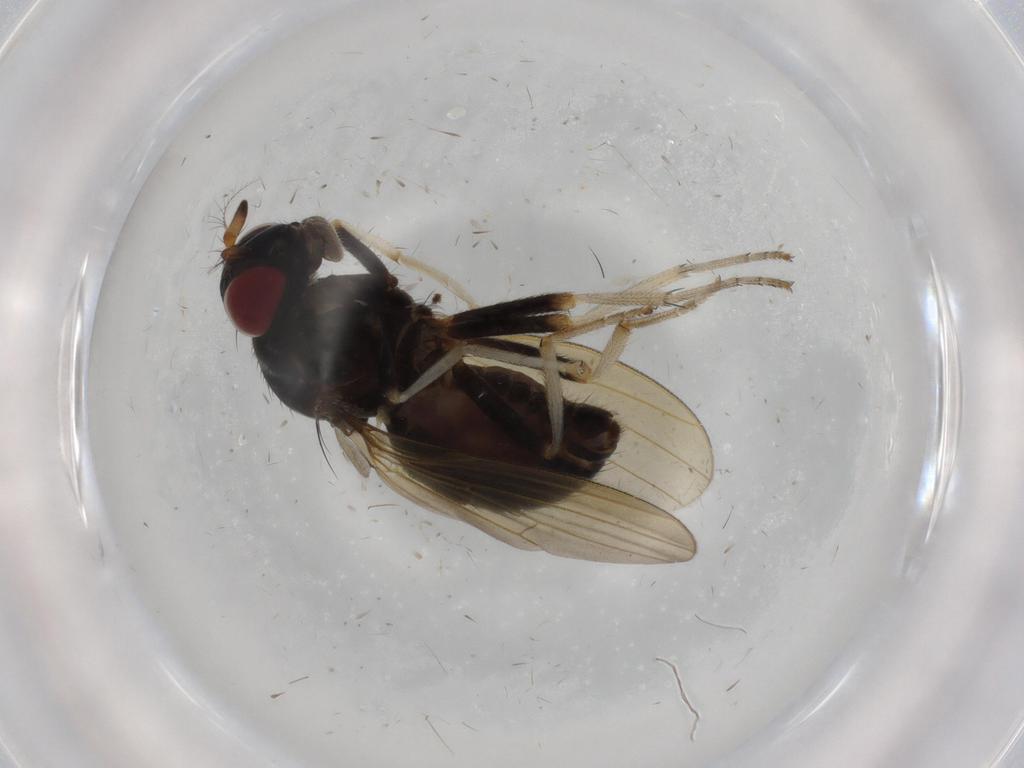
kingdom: Animalia
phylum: Arthropoda
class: Insecta
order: Diptera
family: Lauxaniidae
